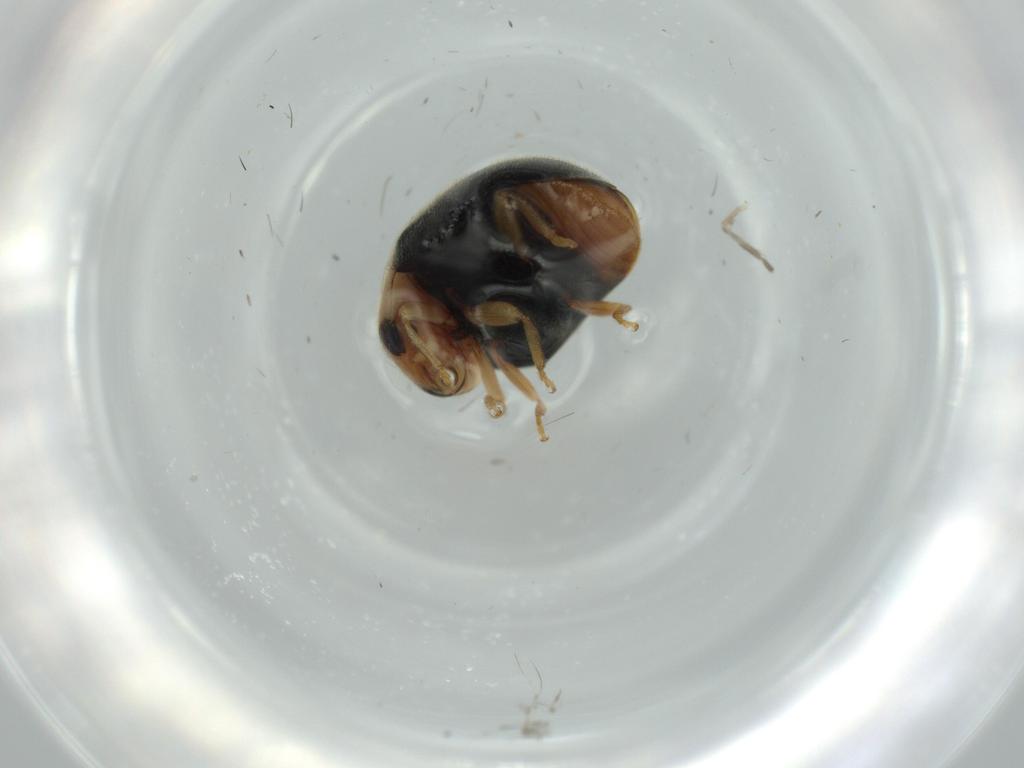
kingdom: Animalia
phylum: Arthropoda
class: Insecta
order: Coleoptera
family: Coccinellidae
